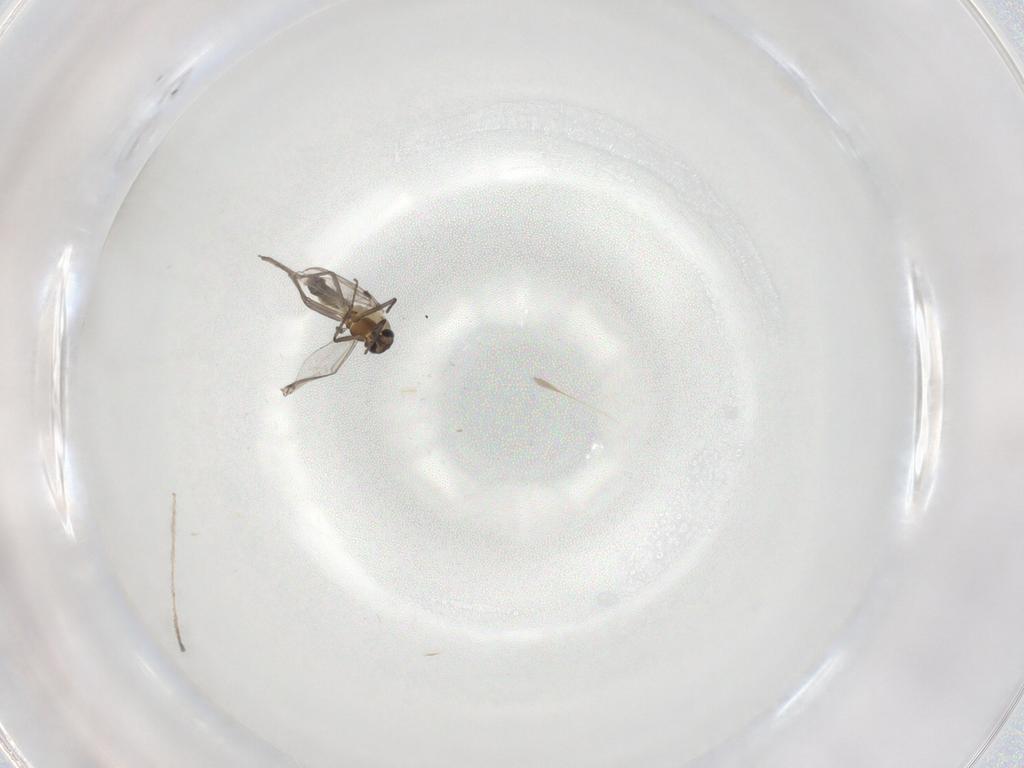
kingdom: Animalia
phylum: Arthropoda
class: Insecta
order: Diptera
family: Chironomidae
